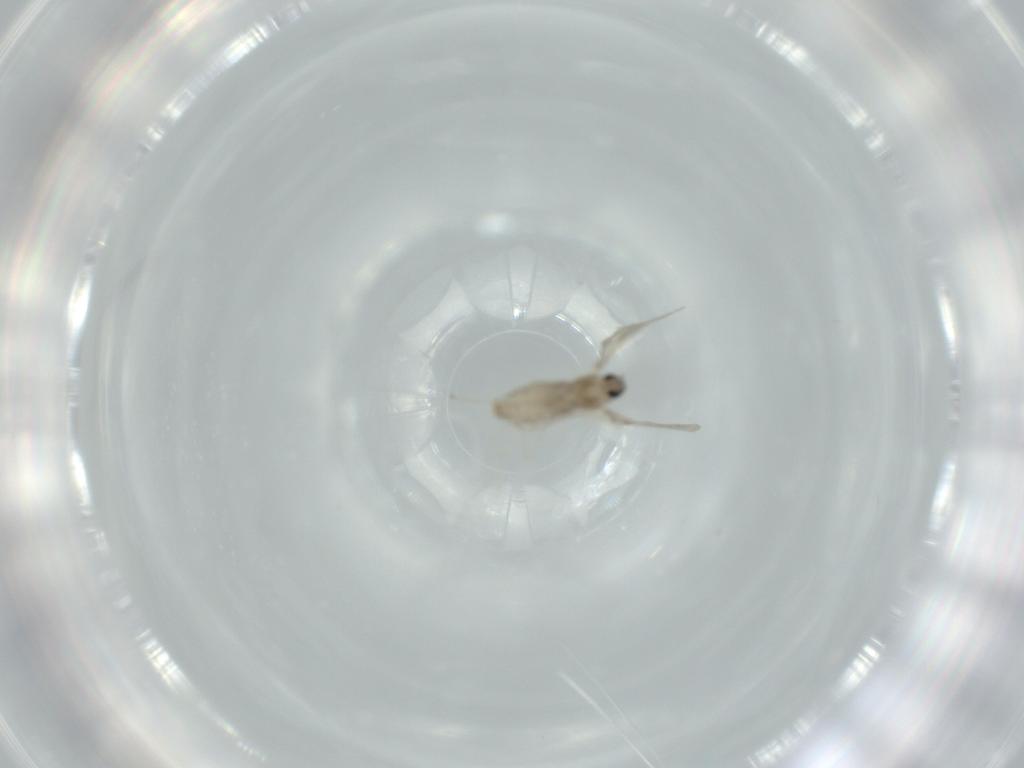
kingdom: Animalia
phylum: Arthropoda
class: Insecta
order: Diptera
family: Cecidomyiidae
